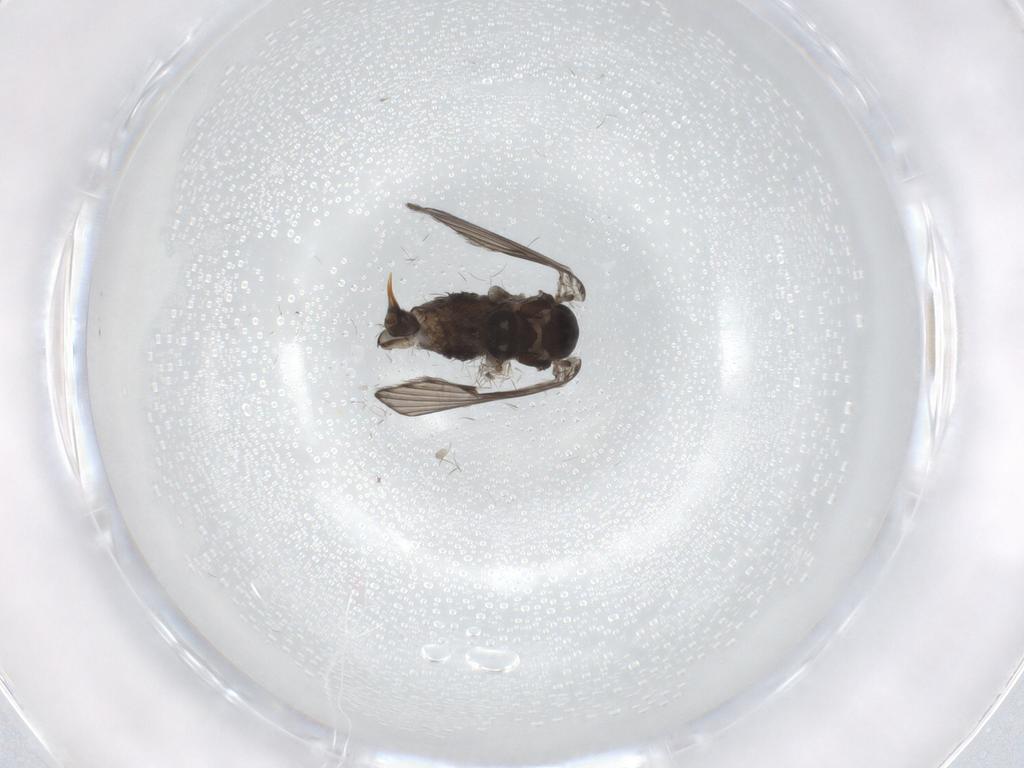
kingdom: Animalia
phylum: Arthropoda
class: Insecta
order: Diptera
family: Psychodidae
